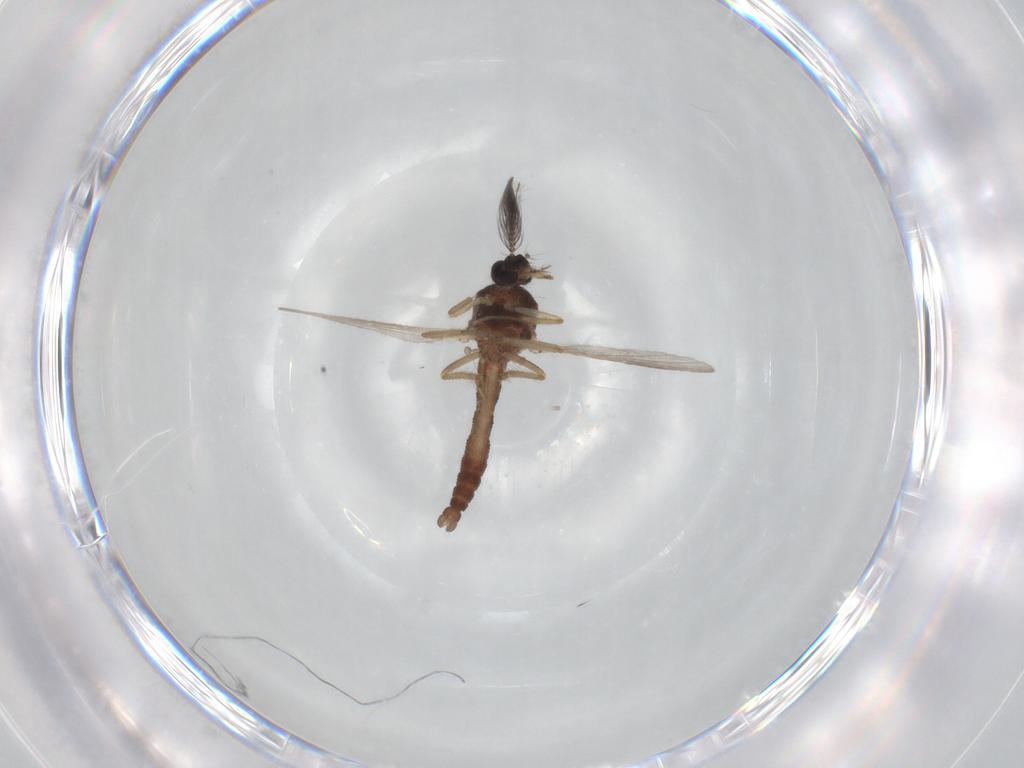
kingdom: Animalia
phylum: Arthropoda
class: Insecta
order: Diptera
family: Ceratopogonidae
